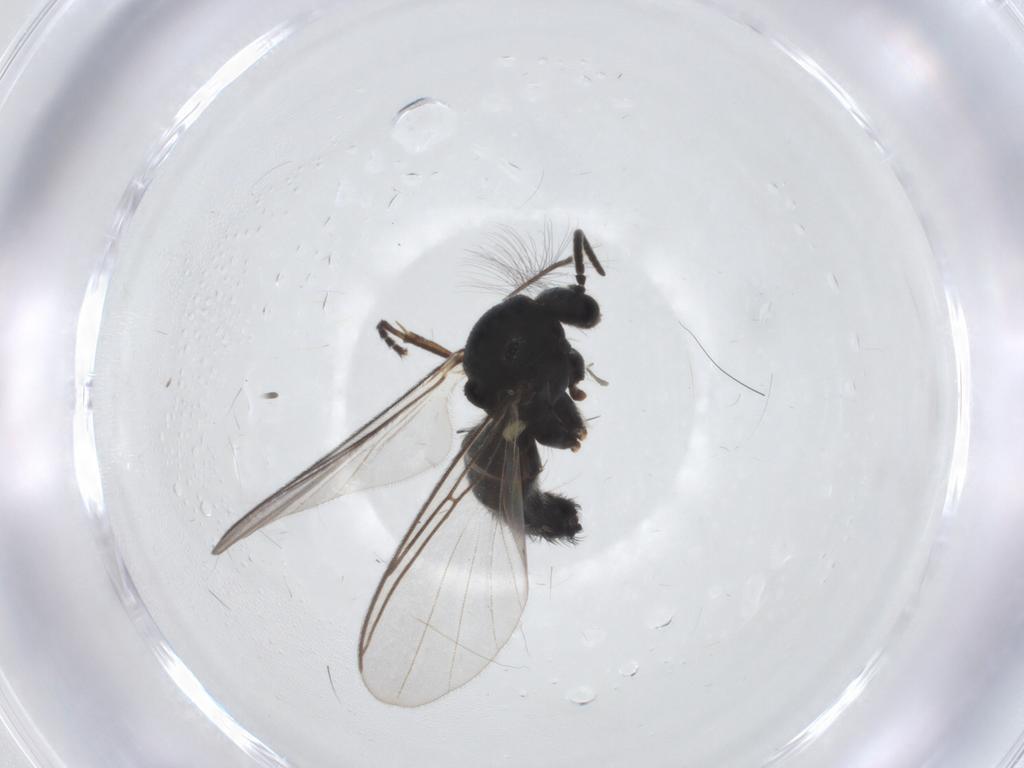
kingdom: Animalia
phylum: Arthropoda
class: Insecta
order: Diptera
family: Mycetophilidae
